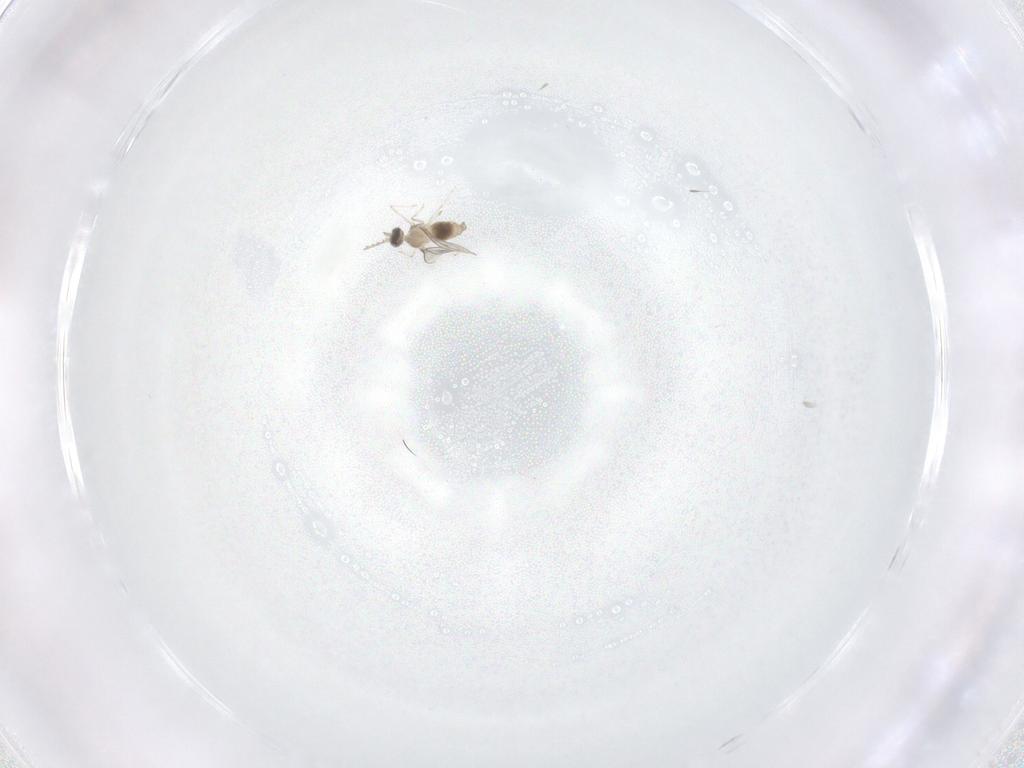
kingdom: Animalia
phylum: Arthropoda
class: Insecta
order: Diptera
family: Cecidomyiidae
